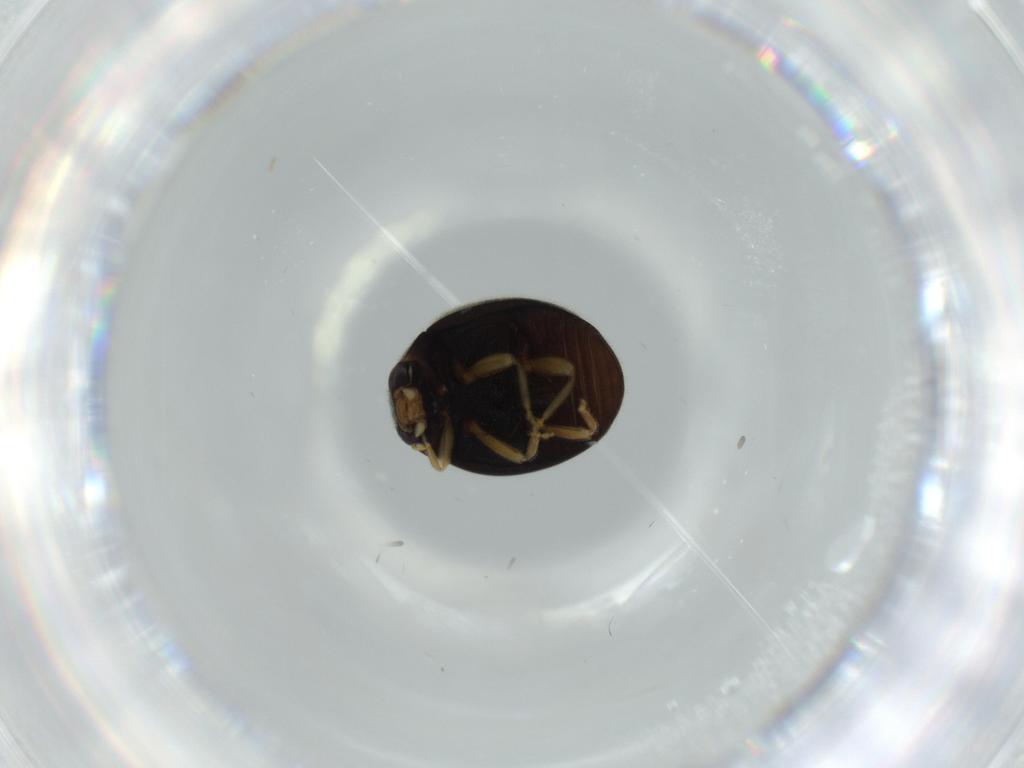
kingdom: Animalia
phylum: Arthropoda
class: Insecta
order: Coleoptera
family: Coccinellidae
